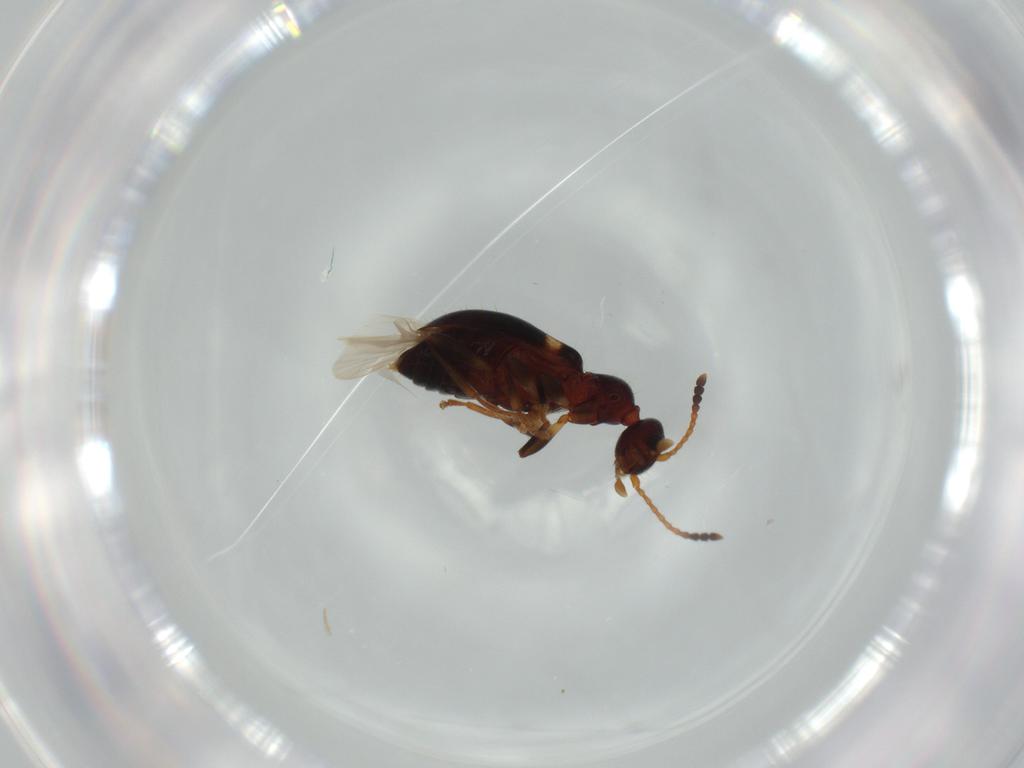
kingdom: Animalia
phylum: Arthropoda
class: Insecta
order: Coleoptera
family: Anthicidae
